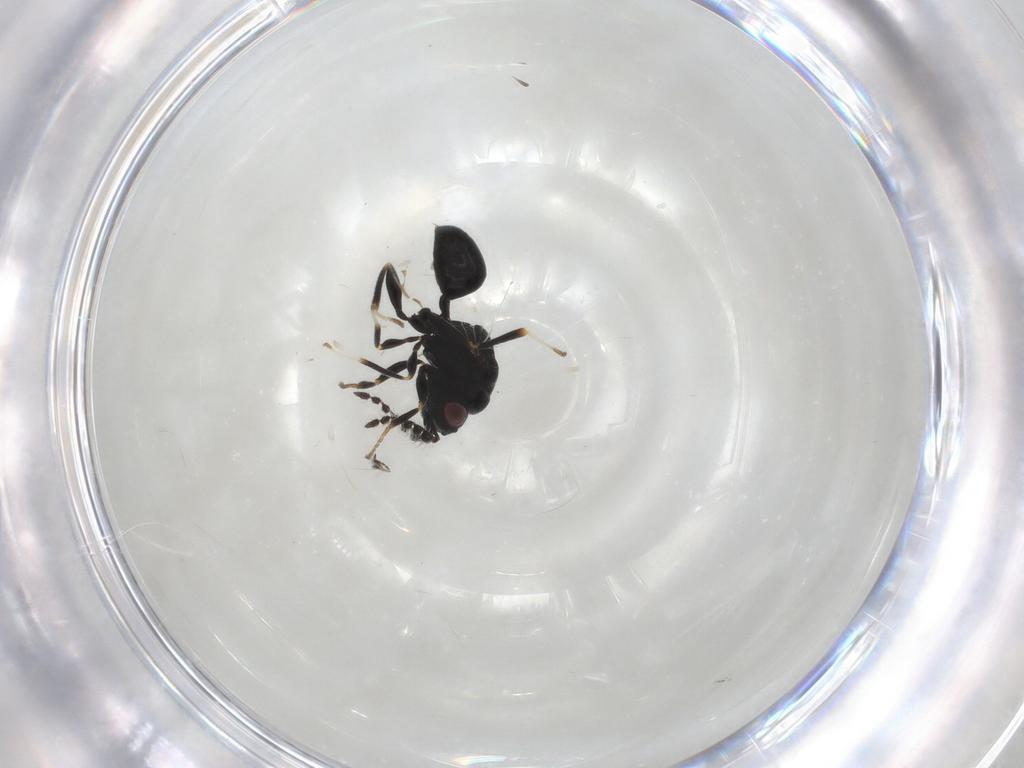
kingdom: Animalia
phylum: Arthropoda
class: Insecta
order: Hymenoptera
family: Eurytomidae
